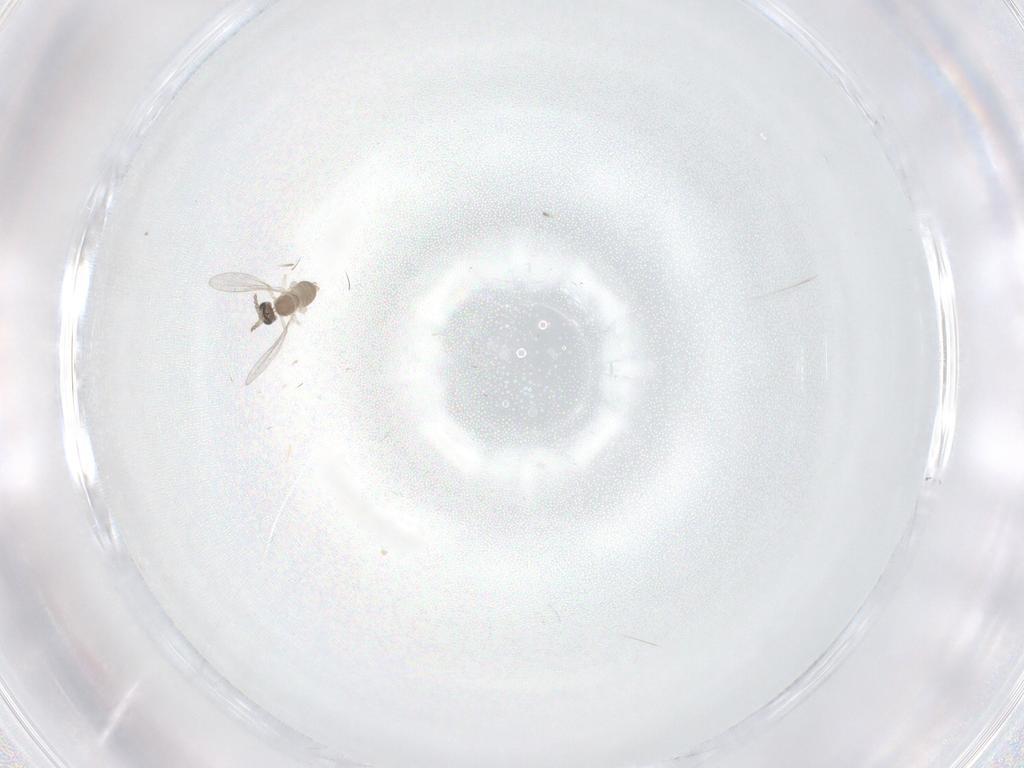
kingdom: Animalia
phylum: Arthropoda
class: Insecta
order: Diptera
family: Cecidomyiidae
